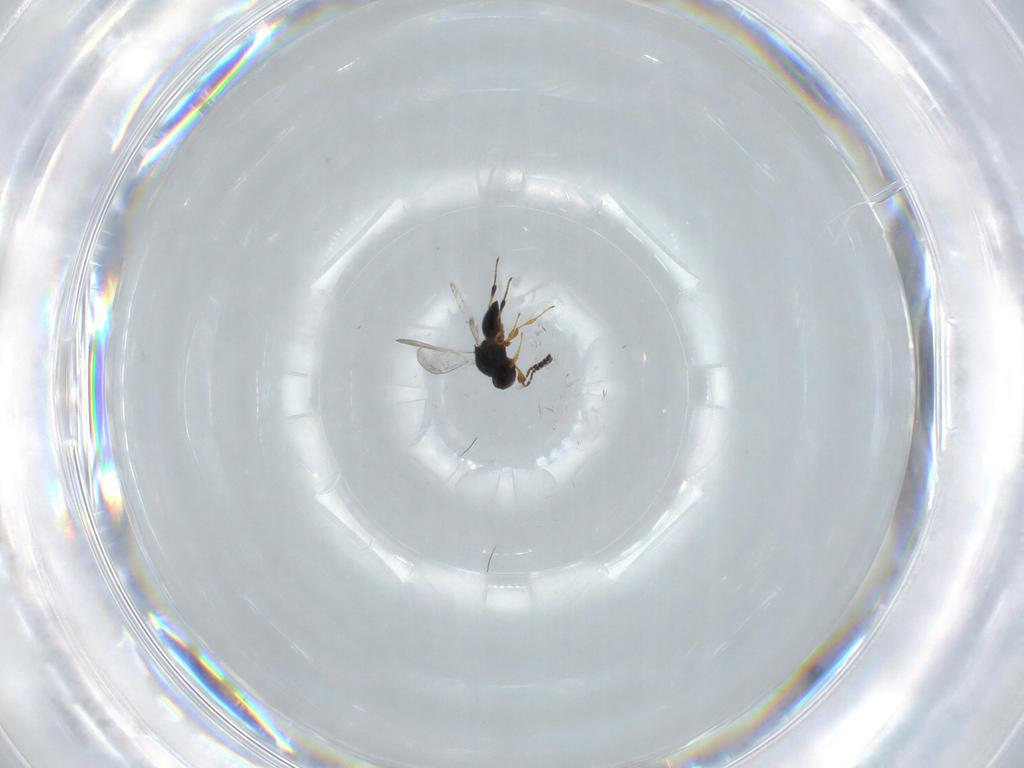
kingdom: Animalia
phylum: Arthropoda
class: Insecta
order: Hymenoptera
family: Platygastridae
